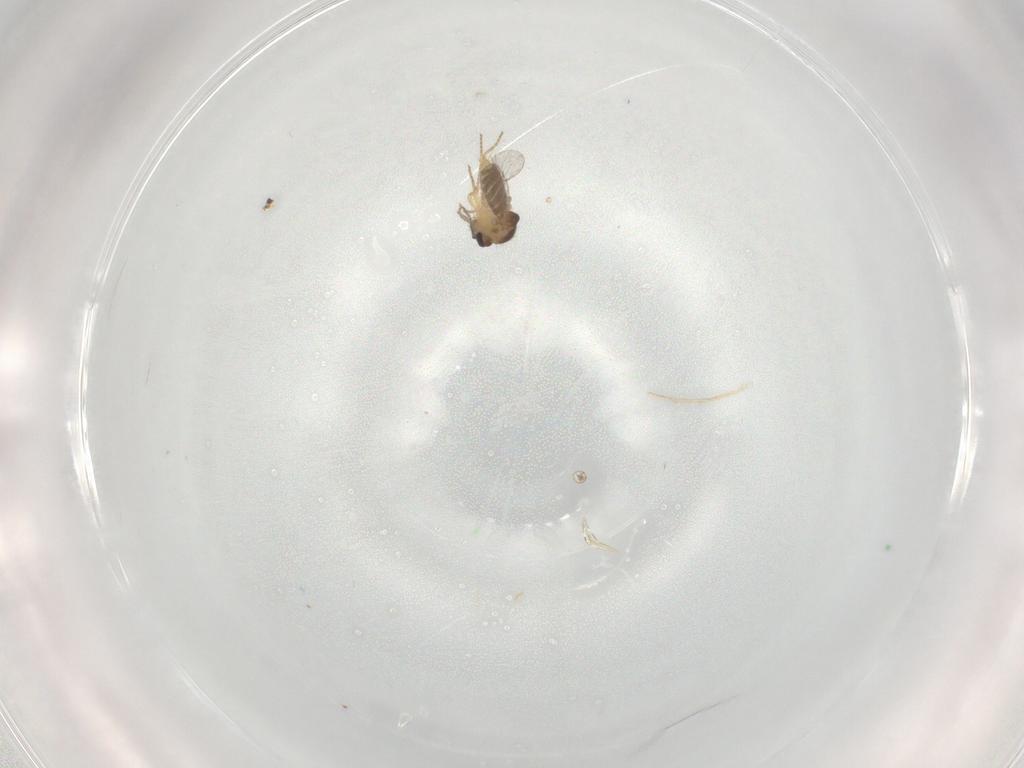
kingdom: Animalia
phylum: Arthropoda
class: Insecta
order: Diptera
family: Ceratopogonidae
